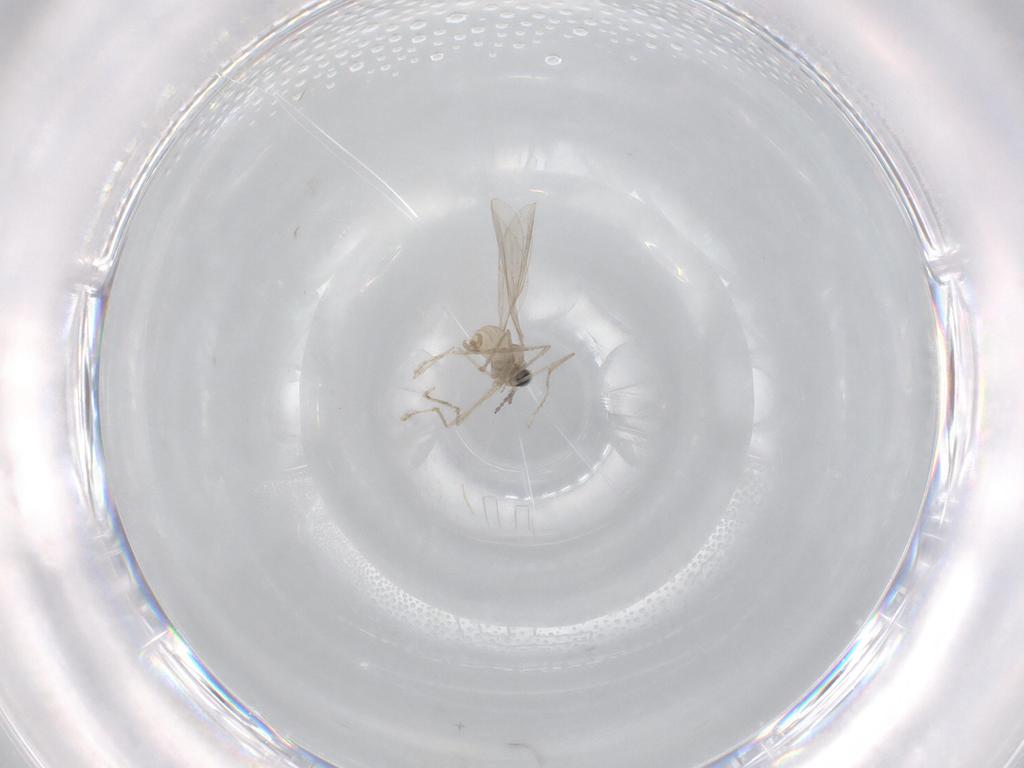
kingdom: Animalia
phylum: Arthropoda
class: Insecta
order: Diptera
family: Cecidomyiidae
